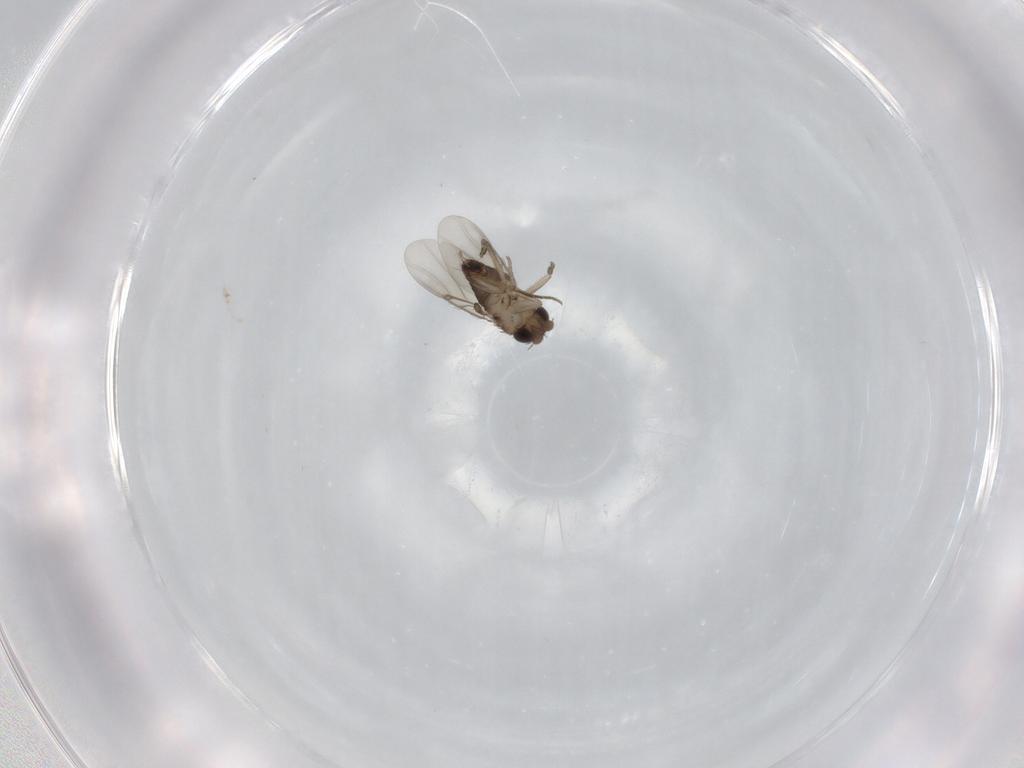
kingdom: Animalia
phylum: Arthropoda
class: Insecta
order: Diptera
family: Phoridae
